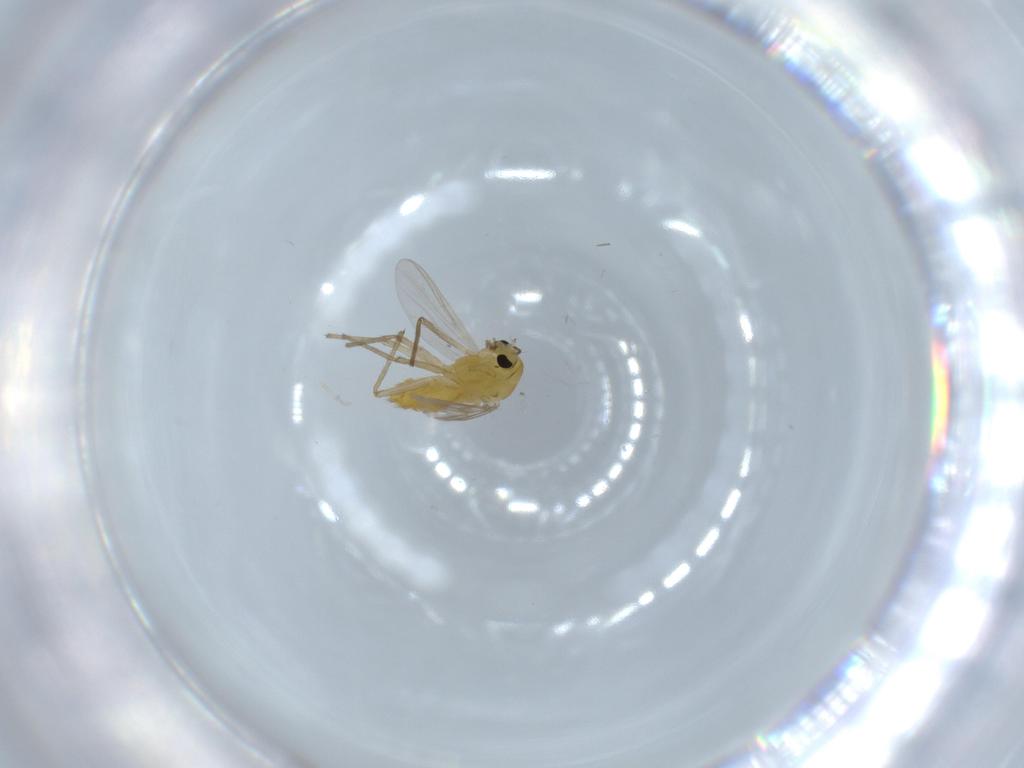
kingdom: Animalia
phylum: Arthropoda
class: Insecta
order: Diptera
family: Chironomidae
